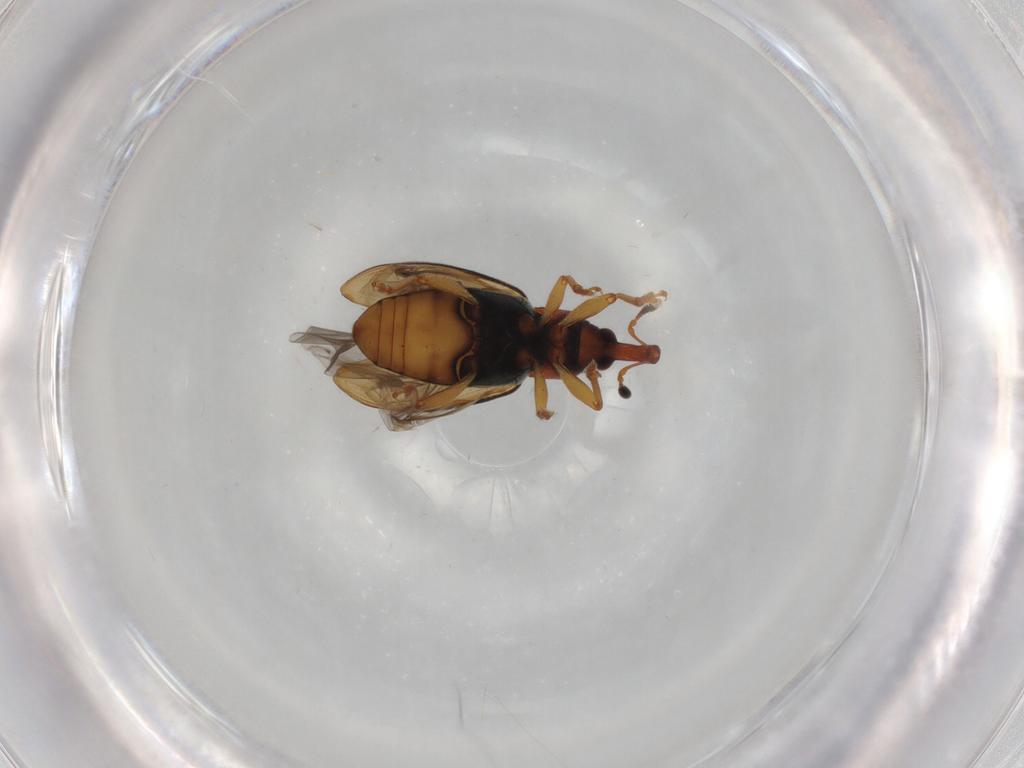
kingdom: Animalia
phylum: Arthropoda
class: Insecta
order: Coleoptera
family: Curculionidae
